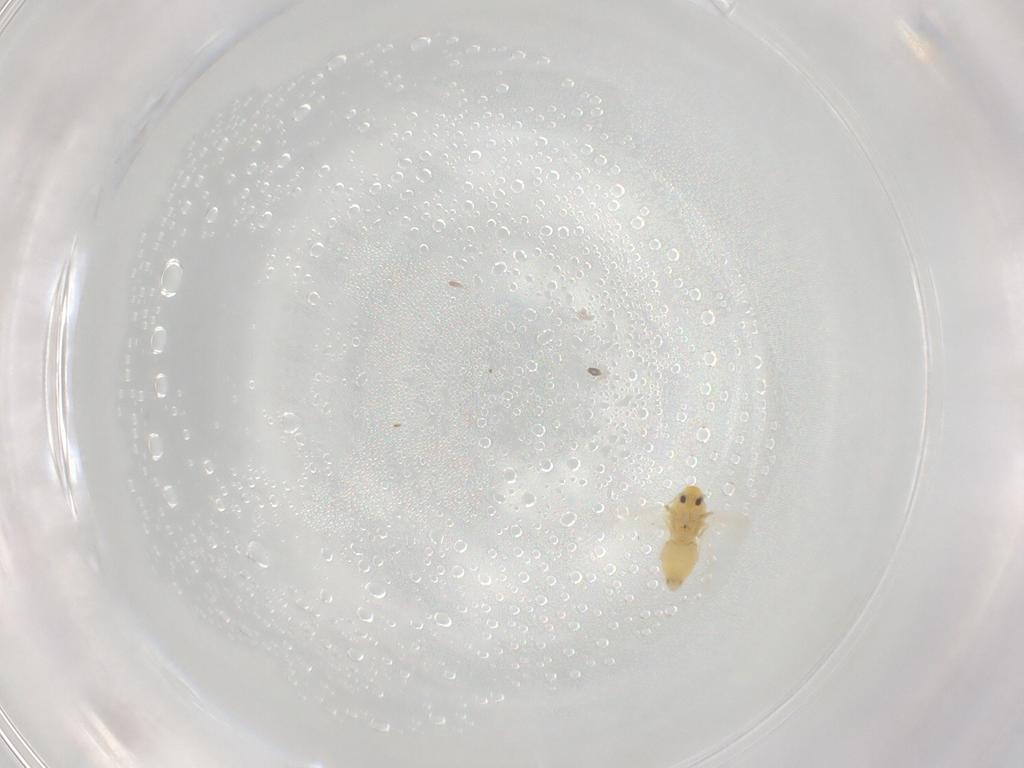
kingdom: Animalia
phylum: Arthropoda
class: Insecta
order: Hemiptera
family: Aleyrodidae
